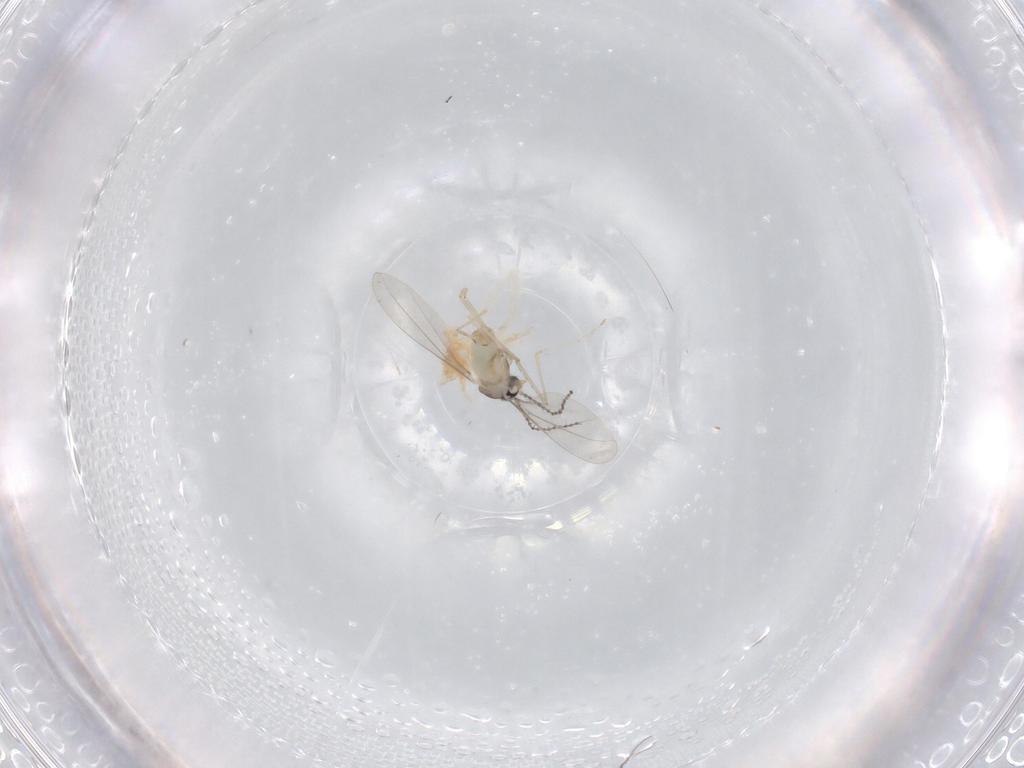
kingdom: Animalia
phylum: Arthropoda
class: Insecta
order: Diptera
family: Cecidomyiidae
